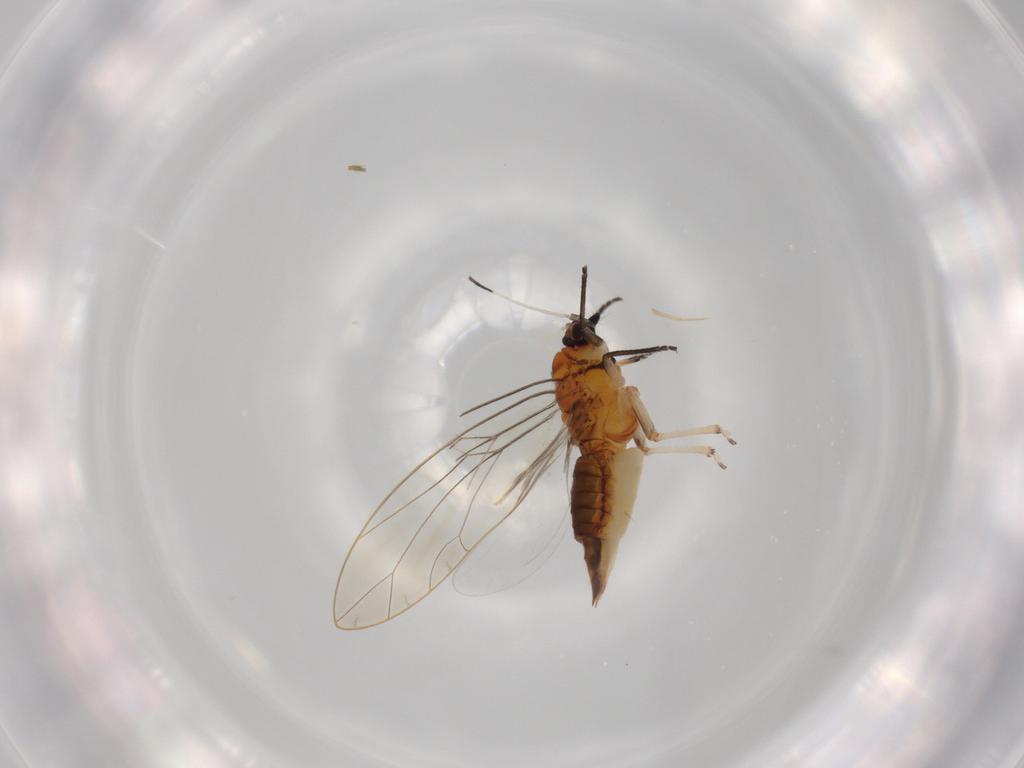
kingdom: Animalia
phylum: Arthropoda
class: Insecta
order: Hemiptera
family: Triozidae
